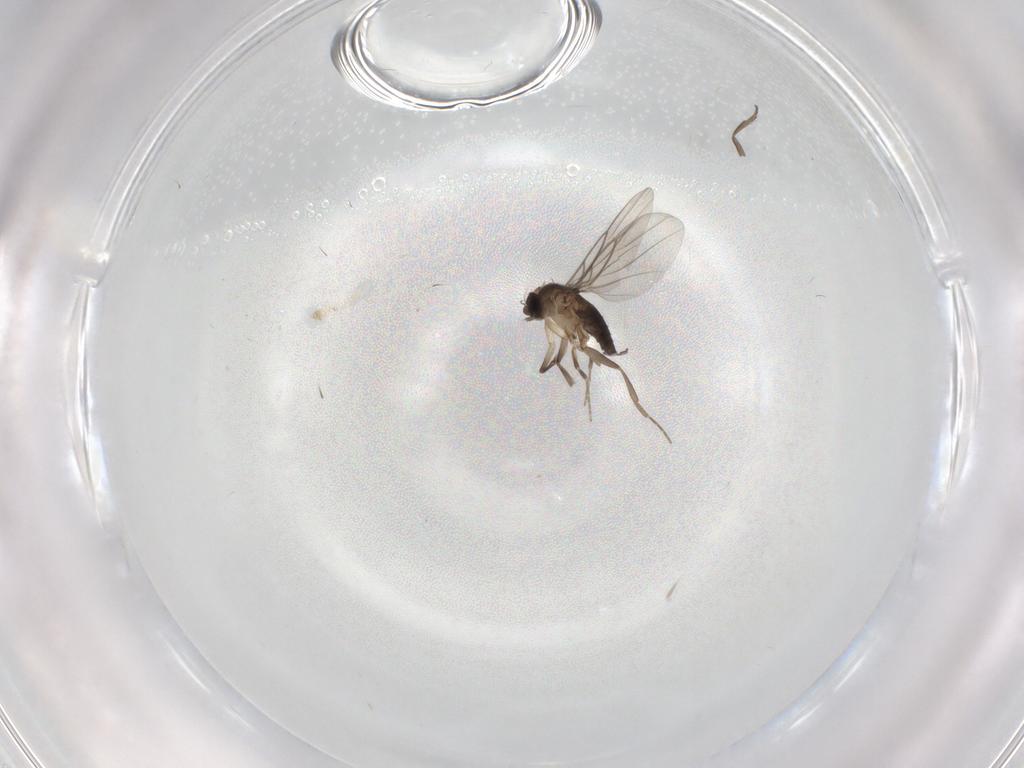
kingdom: Animalia
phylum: Arthropoda
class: Insecta
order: Diptera
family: Phoridae
